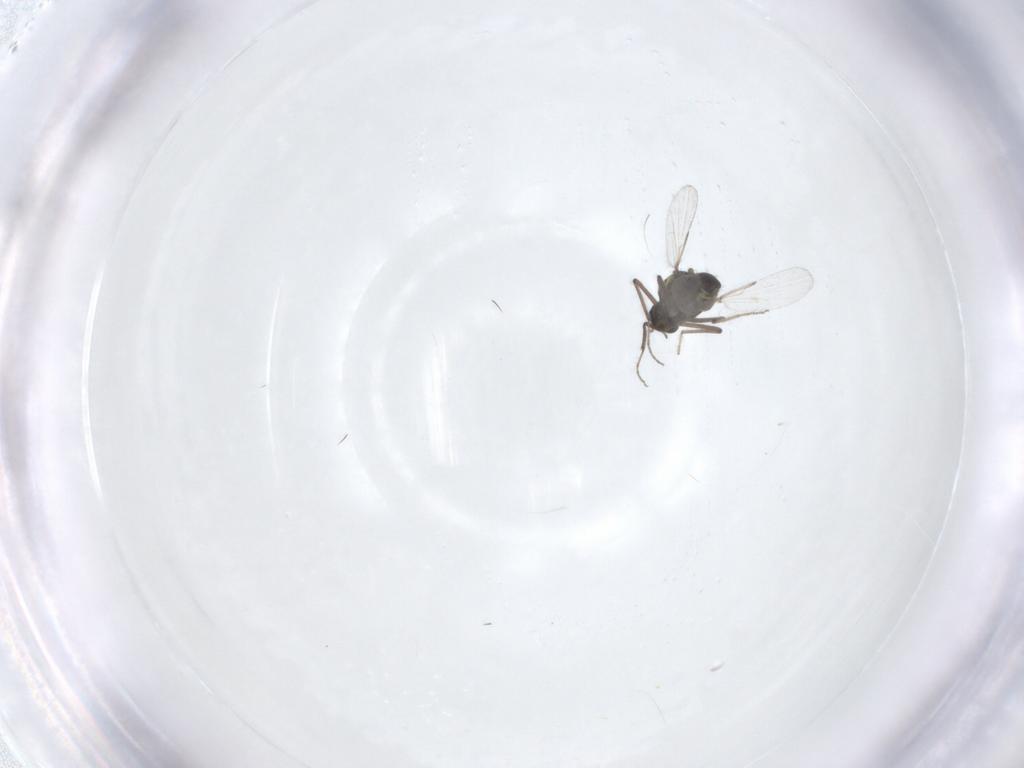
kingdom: Animalia
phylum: Arthropoda
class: Insecta
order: Diptera
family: Ceratopogonidae
